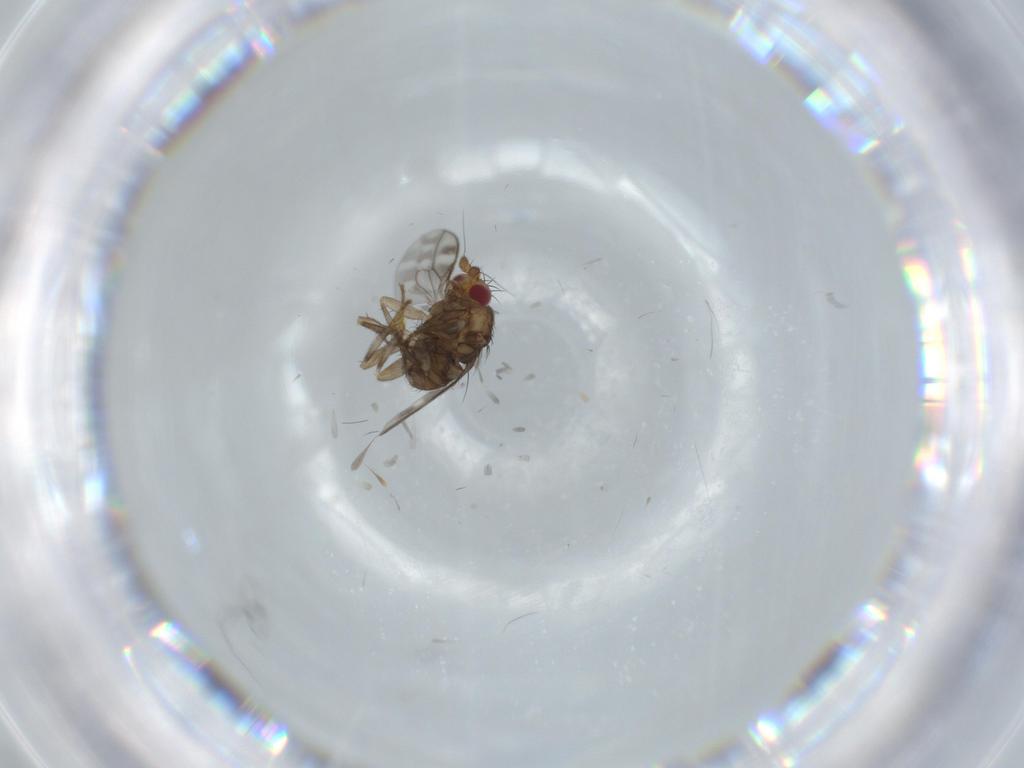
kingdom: Animalia
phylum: Arthropoda
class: Insecta
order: Diptera
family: Sphaeroceridae
